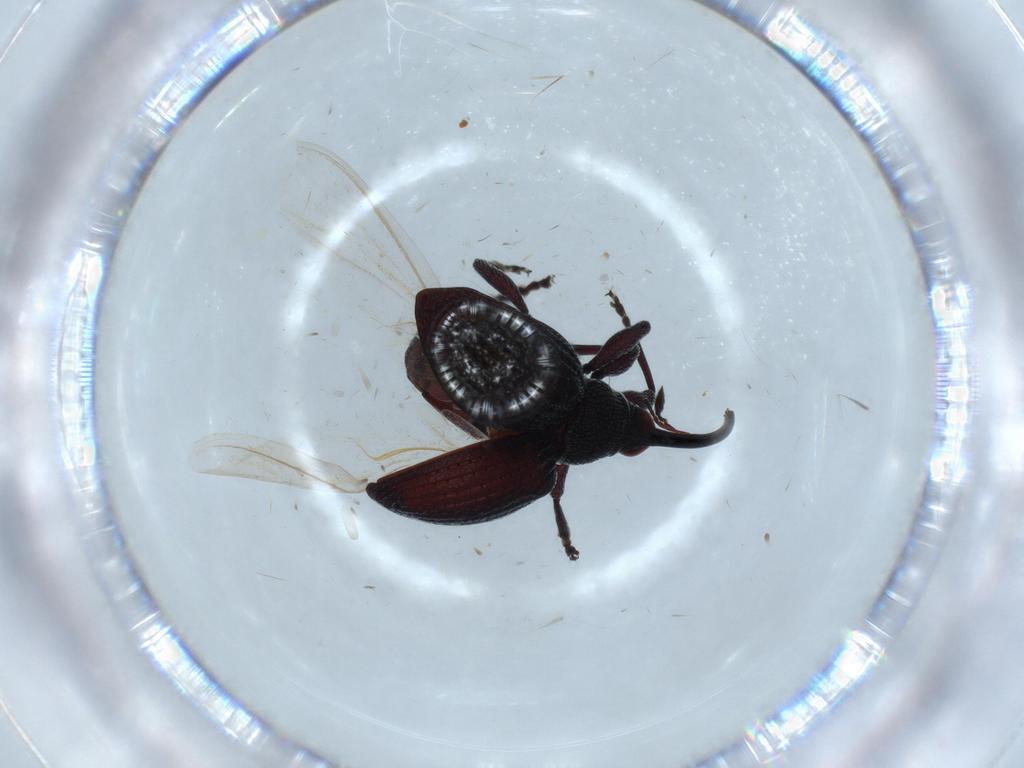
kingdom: Animalia
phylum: Arthropoda
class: Insecta
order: Coleoptera
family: Brentidae
